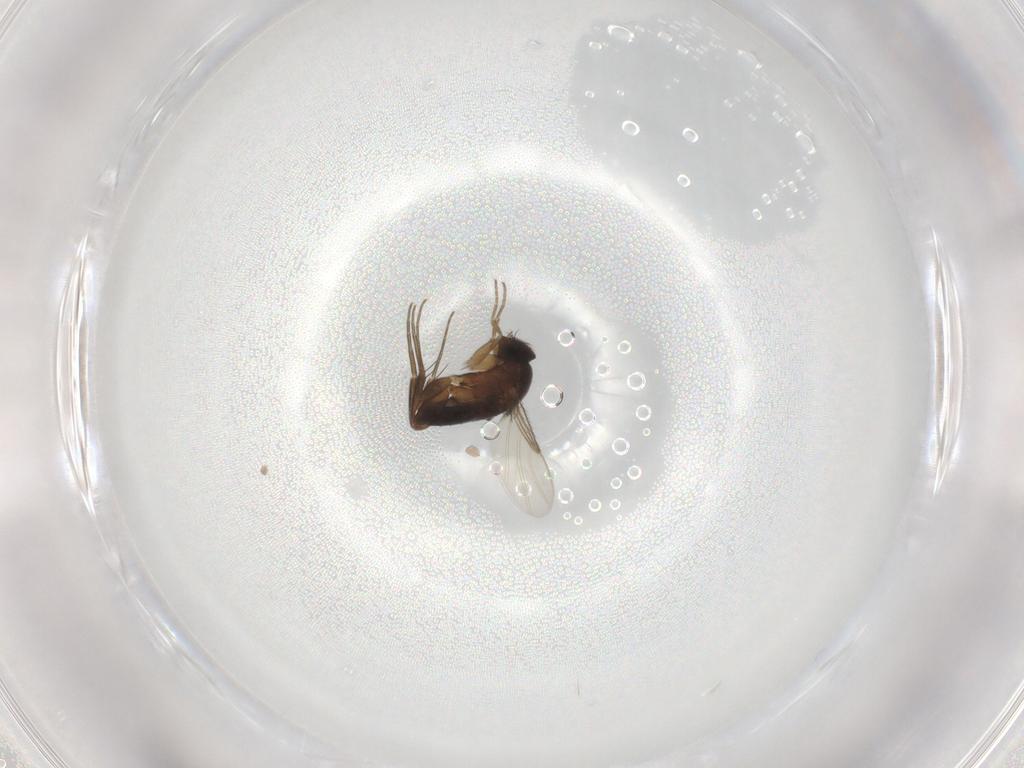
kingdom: Animalia
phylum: Arthropoda
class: Insecta
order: Diptera
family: Phoridae
